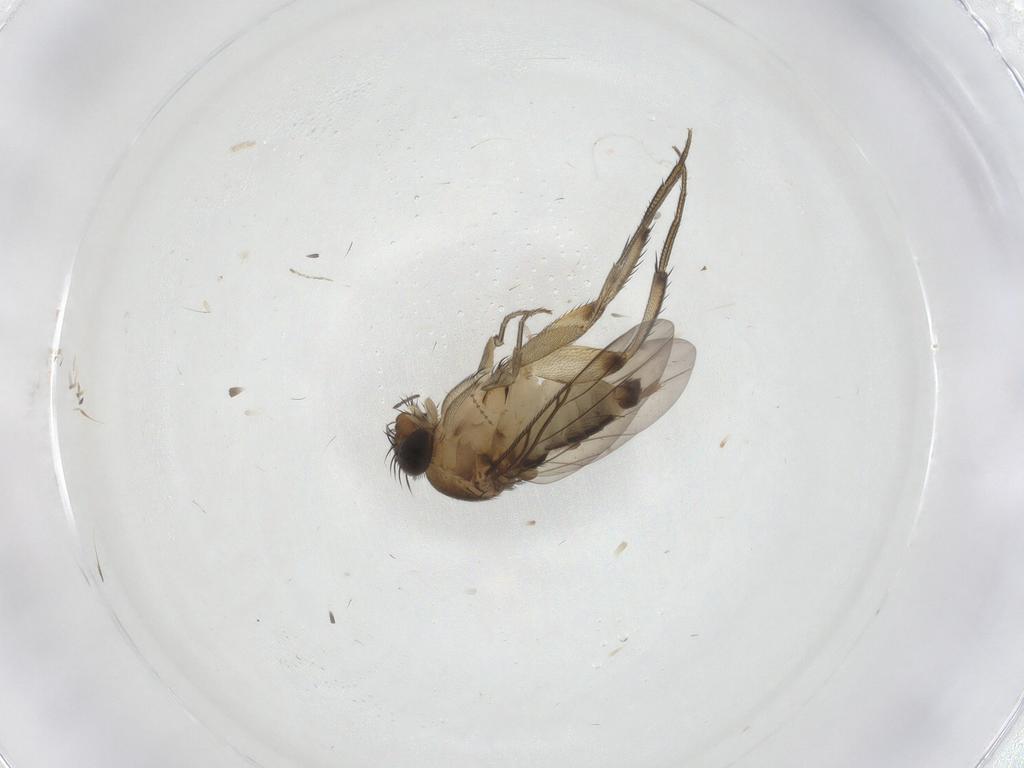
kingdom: Animalia
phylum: Arthropoda
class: Insecta
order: Diptera
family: Phoridae
